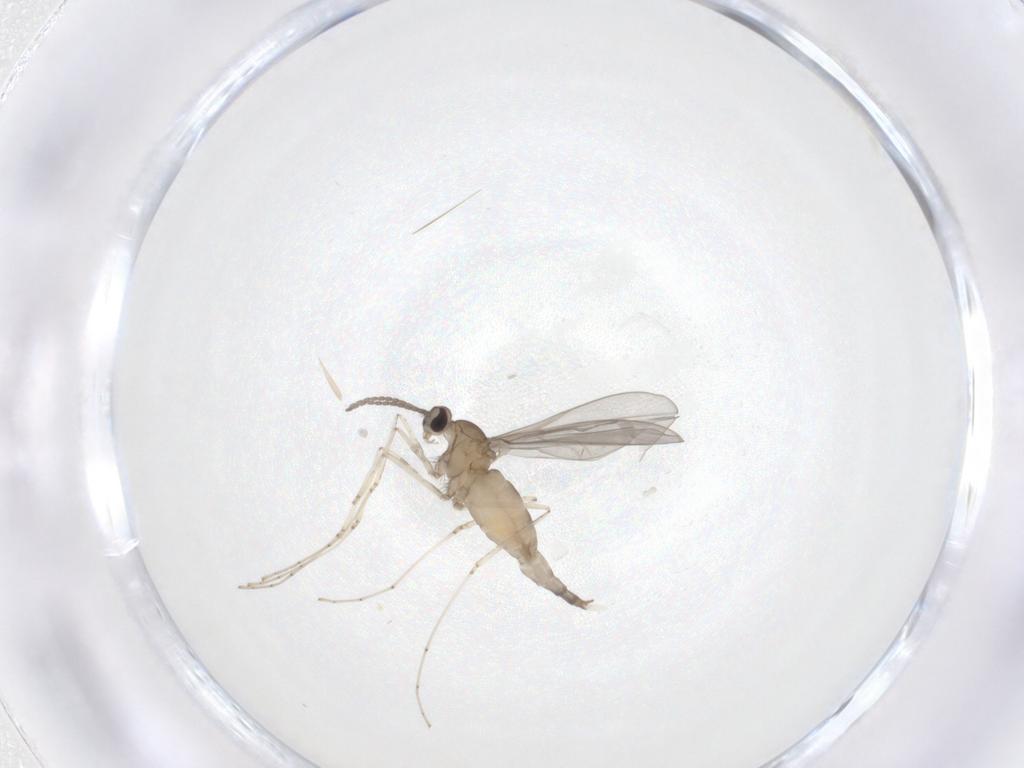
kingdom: Animalia
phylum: Arthropoda
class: Insecta
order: Diptera
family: Cecidomyiidae
